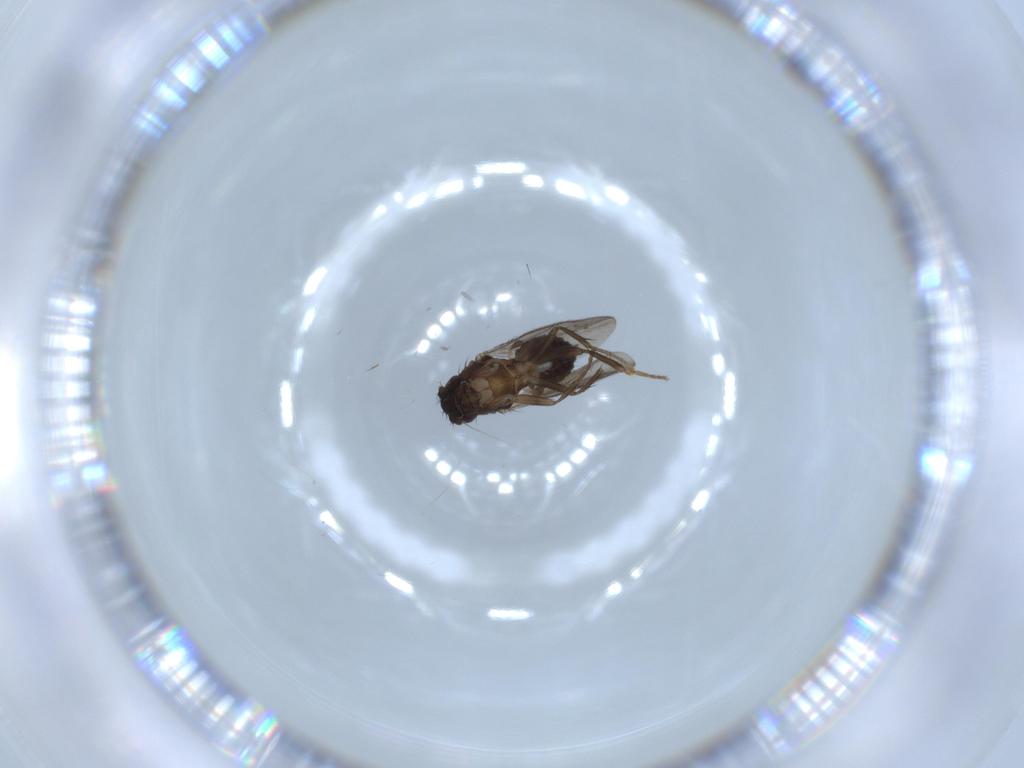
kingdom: Animalia
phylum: Arthropoda
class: Insecta
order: Diptera
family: Sphaeroceridae
